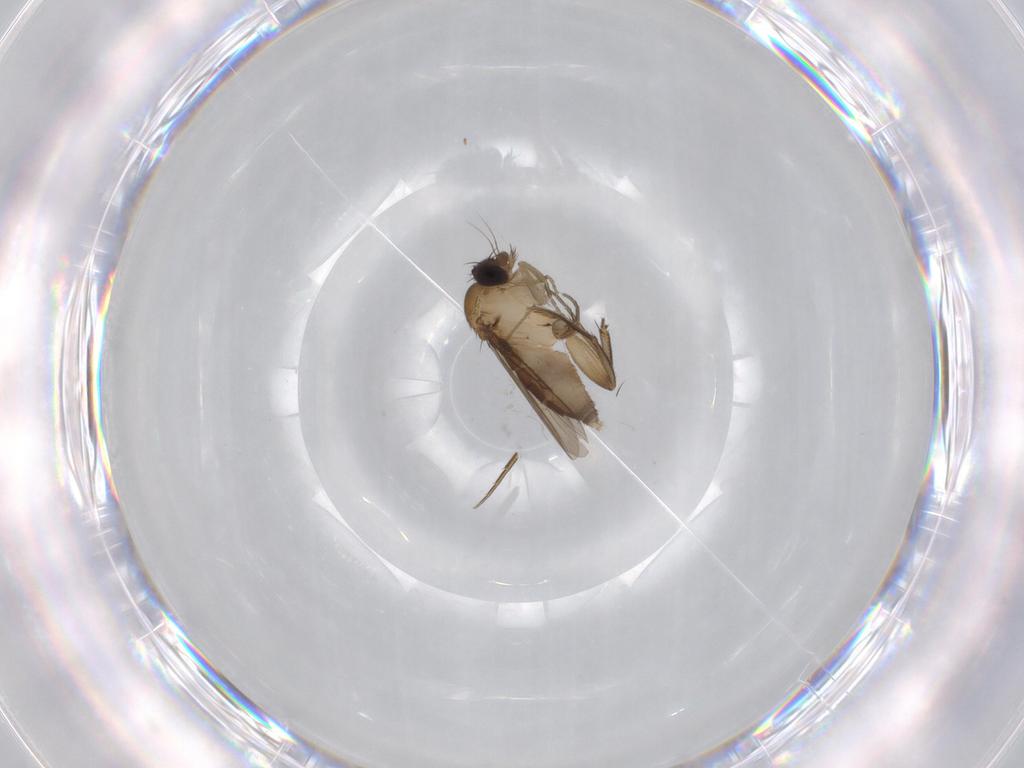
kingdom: Animalia
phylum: Arthropoda
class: Insecta
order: Diptera
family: Phoridae
